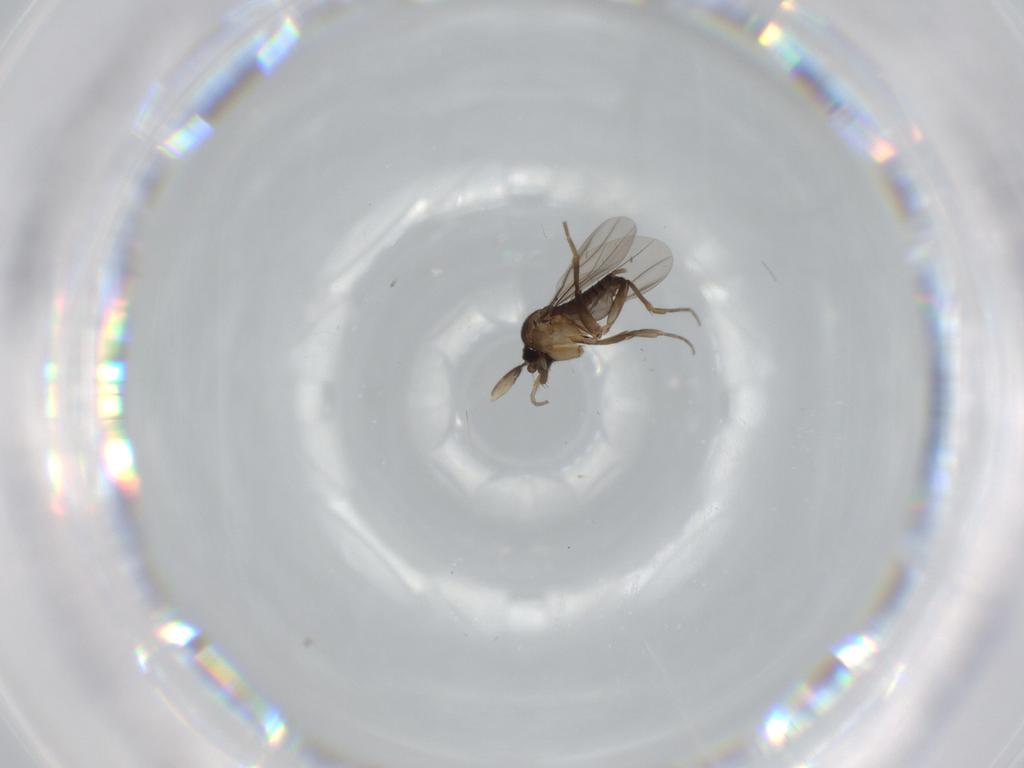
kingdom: Animalia
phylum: Arthropoda
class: Insecta
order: Diptera
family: Phoridae
